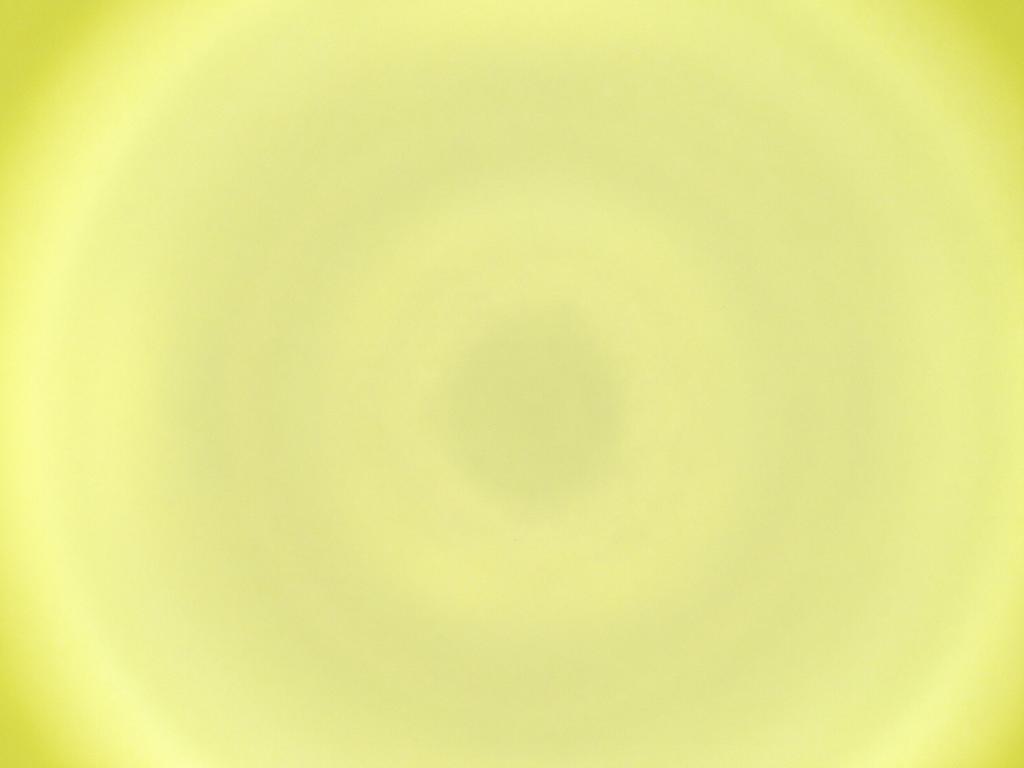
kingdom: Animalia
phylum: Arthropoda
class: Insecta
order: Diptera
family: Cecidomyiidae
